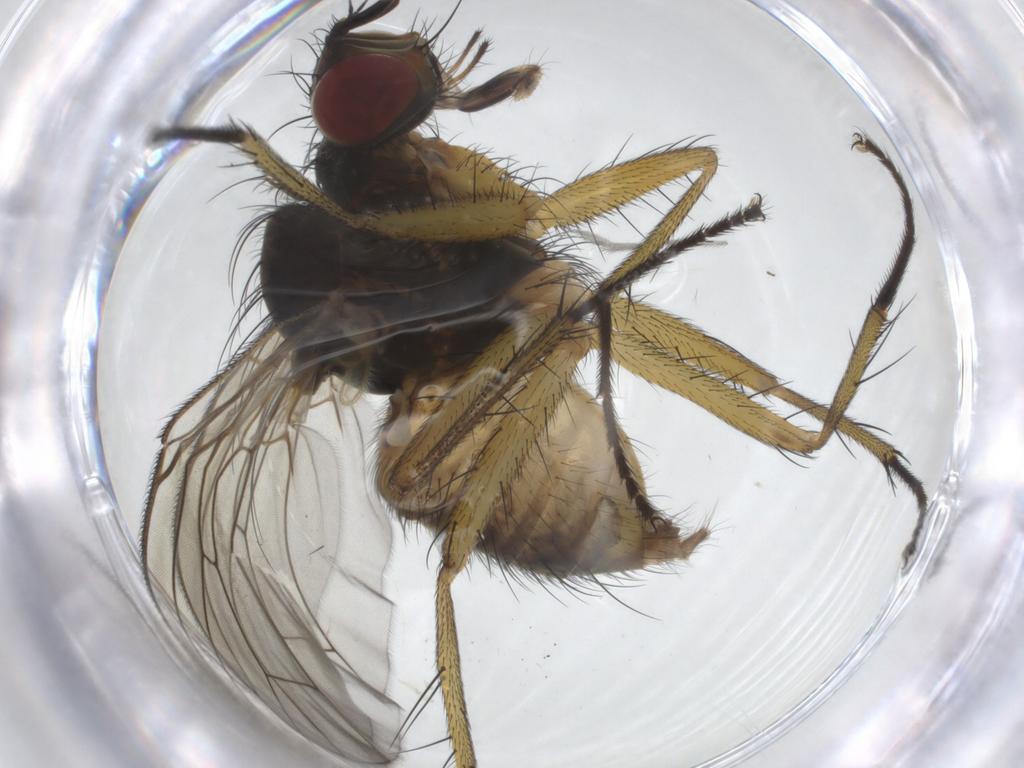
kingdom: Animalia
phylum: Arthropoda
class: Insecta
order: Diptera
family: Muscidae
